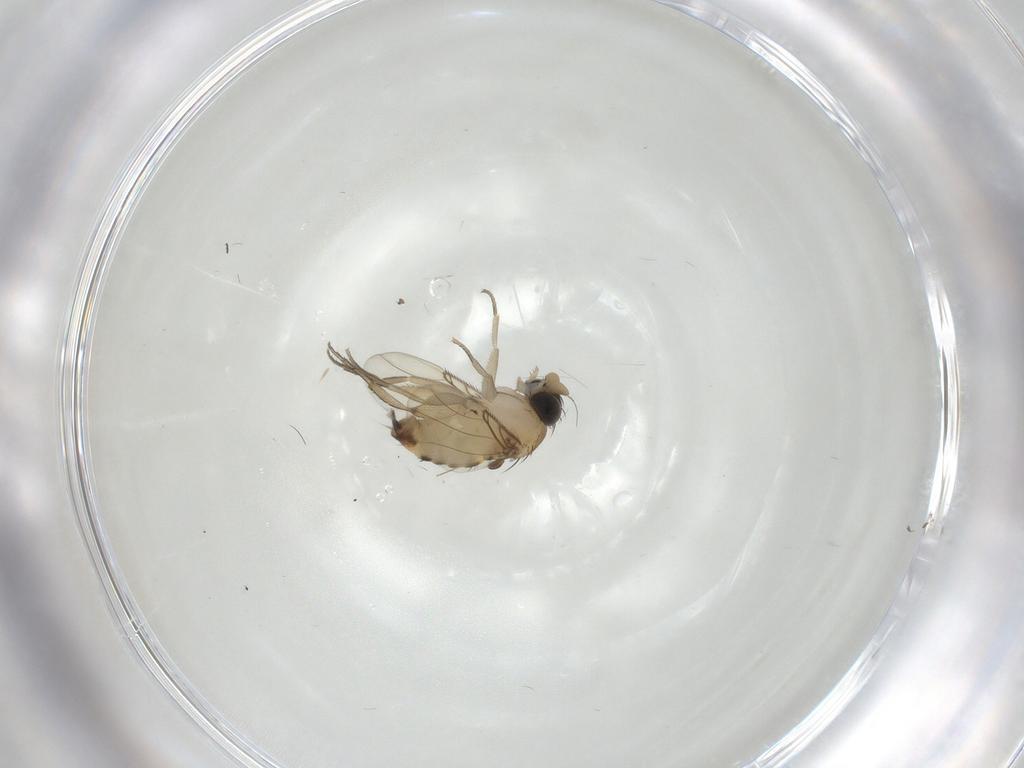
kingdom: Animalia
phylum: Arthropoda
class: Insecta
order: Diptera
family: Phoridae
